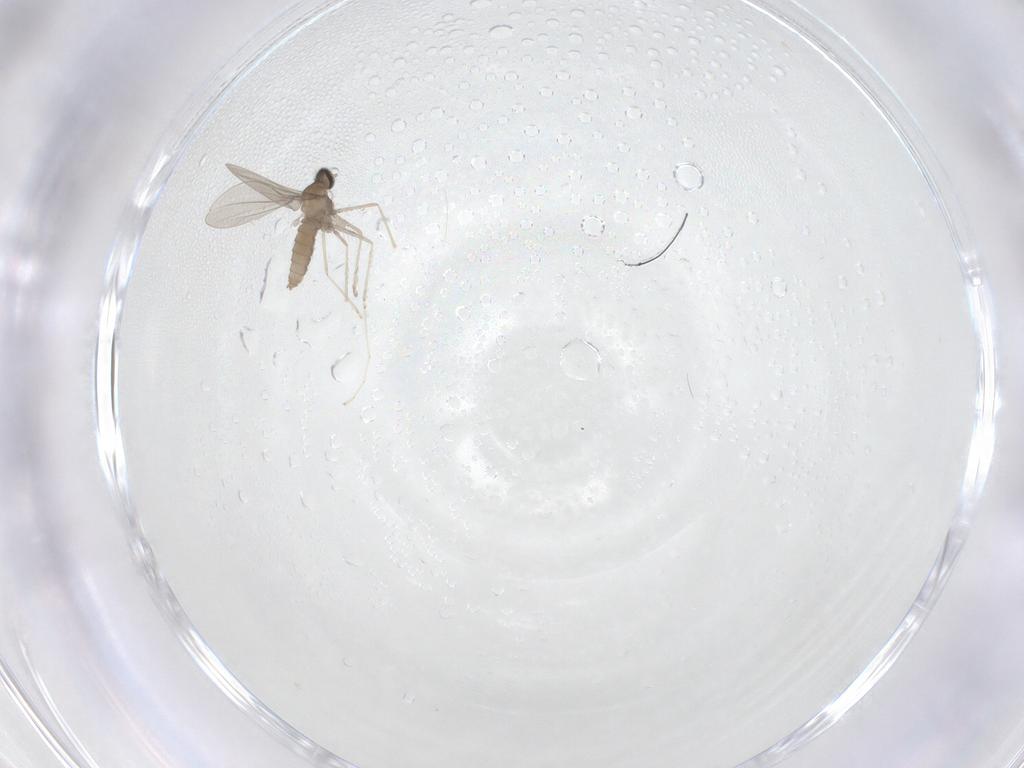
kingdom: Animalia
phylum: Arthropoda
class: Insecta
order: Diptera
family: Cecidomyiidae
